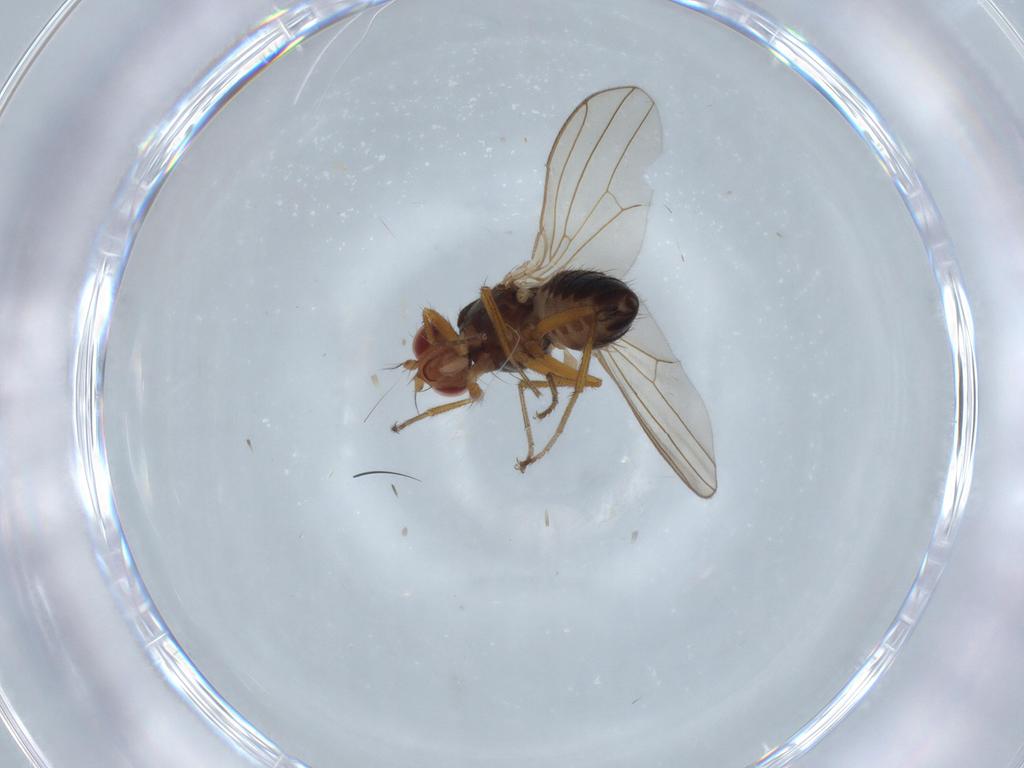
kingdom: Animalia
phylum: Arthropoda
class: Insecta
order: Diptera
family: Drosophilidae
